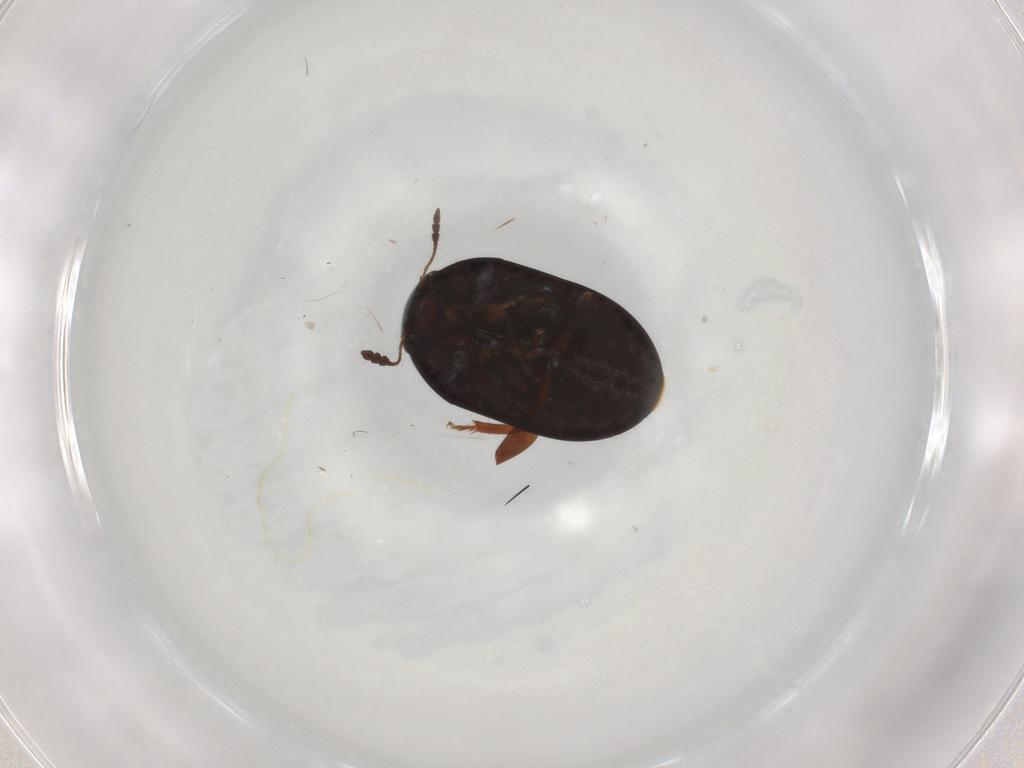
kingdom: Animalia
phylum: Arthropoda
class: Insecta
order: Coleoptera
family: Phalacridae
